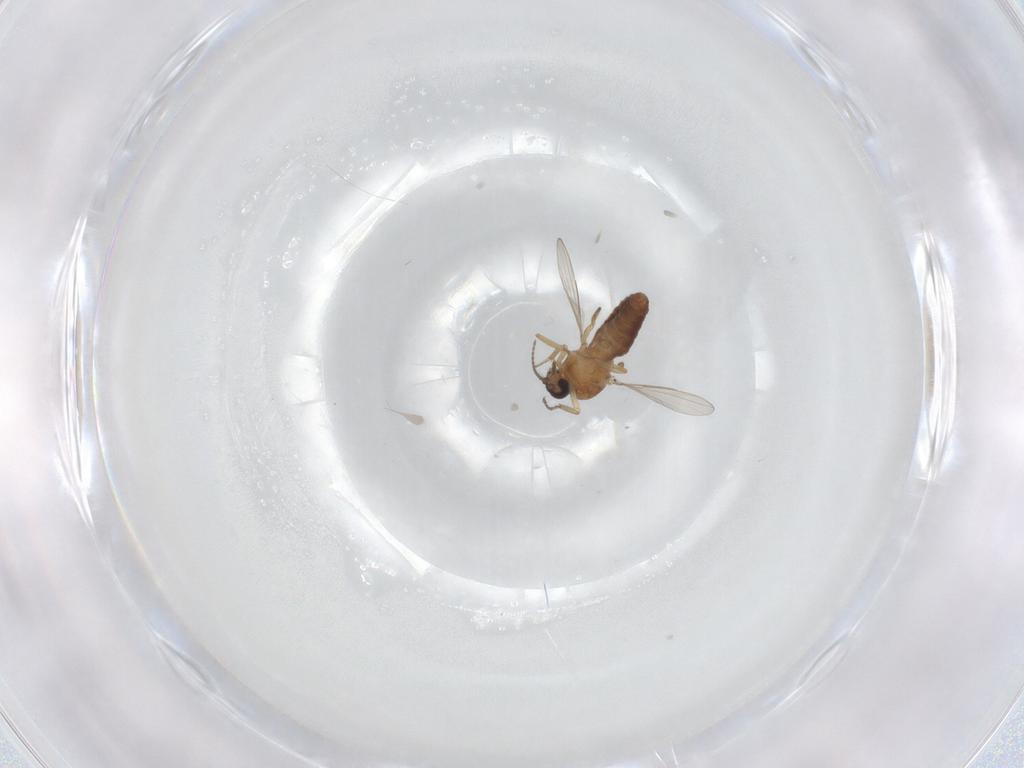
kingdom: Animalia
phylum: Arthropoda
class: Insecta
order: Diptera
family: Ceratopogonidae
